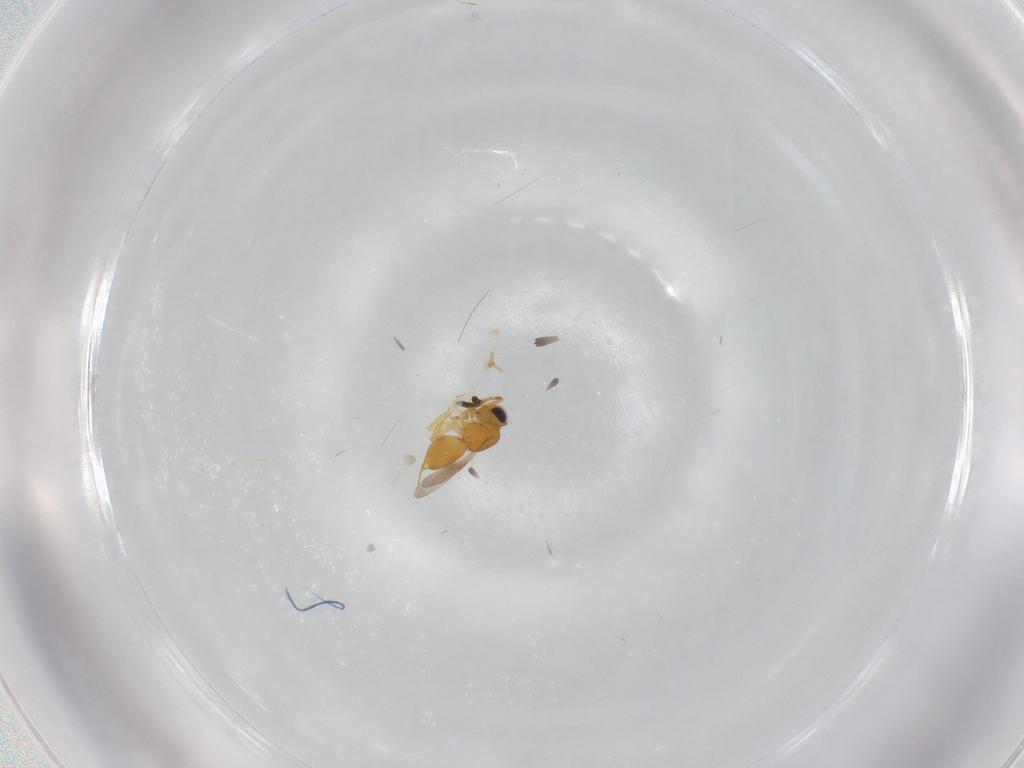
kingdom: Animalia
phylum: Arthropoda
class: Insecta
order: Hymenoptera
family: Ceraphronidae
